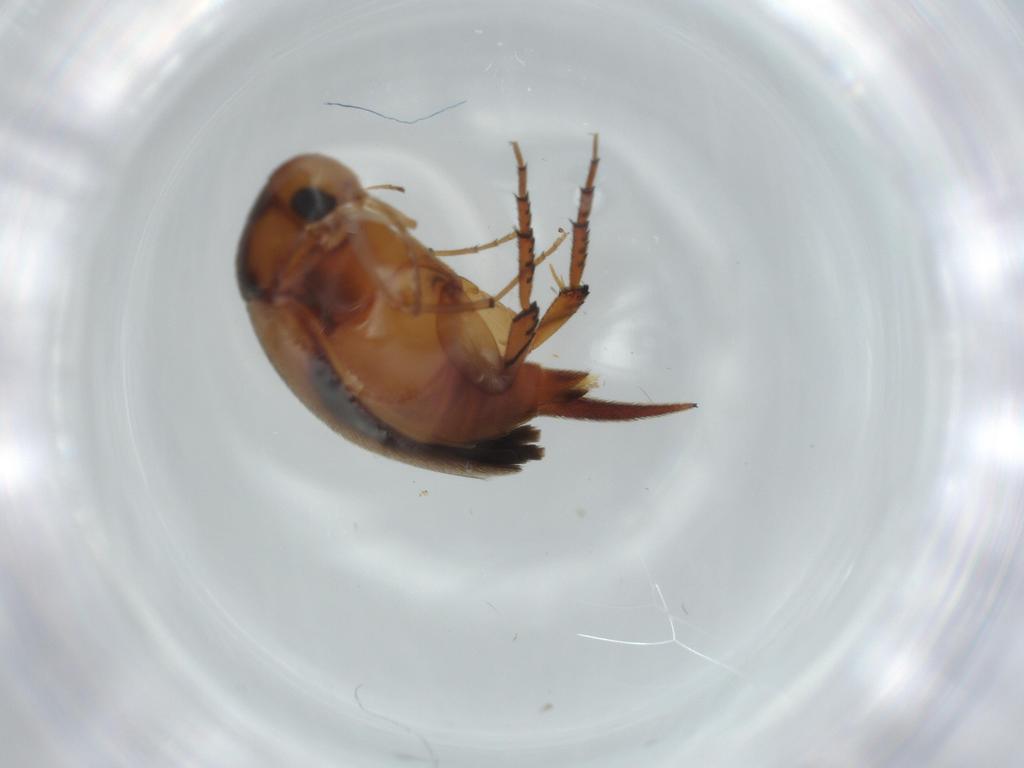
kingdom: Animalia
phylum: Arthropoda
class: Insecta
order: Coleoptera
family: Mordellidae
